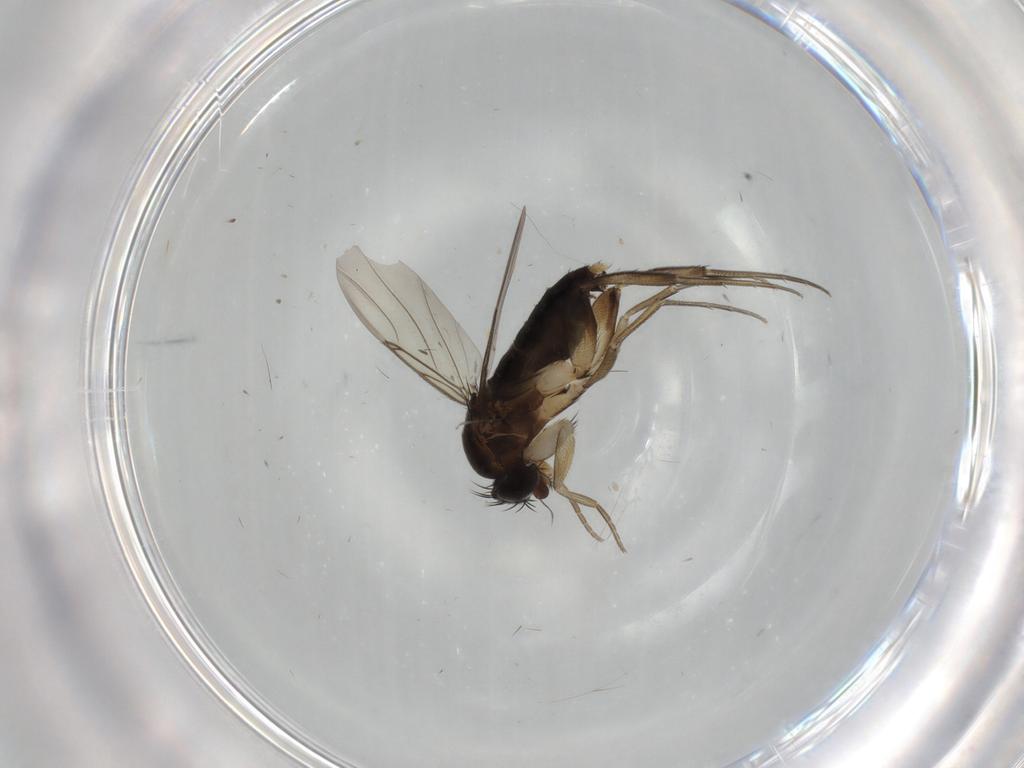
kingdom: Animalia
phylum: Arthropoda
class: Insecta
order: Diptera
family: Phoridae
